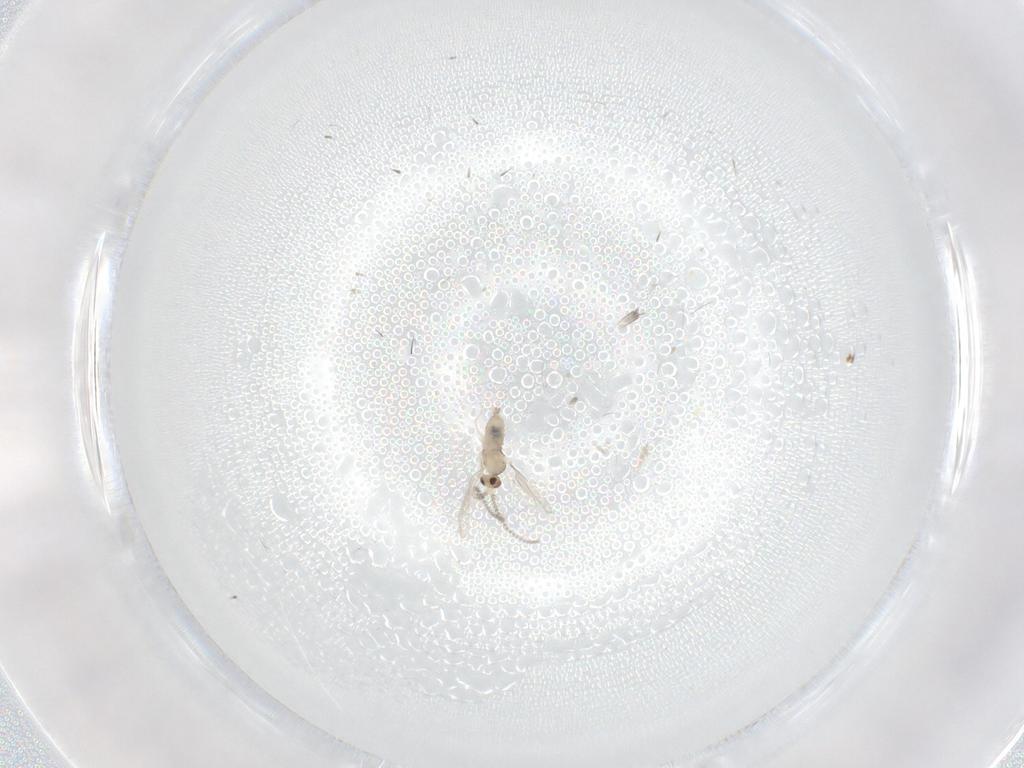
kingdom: Animalia
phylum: Arthropoda
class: Insecta
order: Diptera
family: Cecidomyiidae
